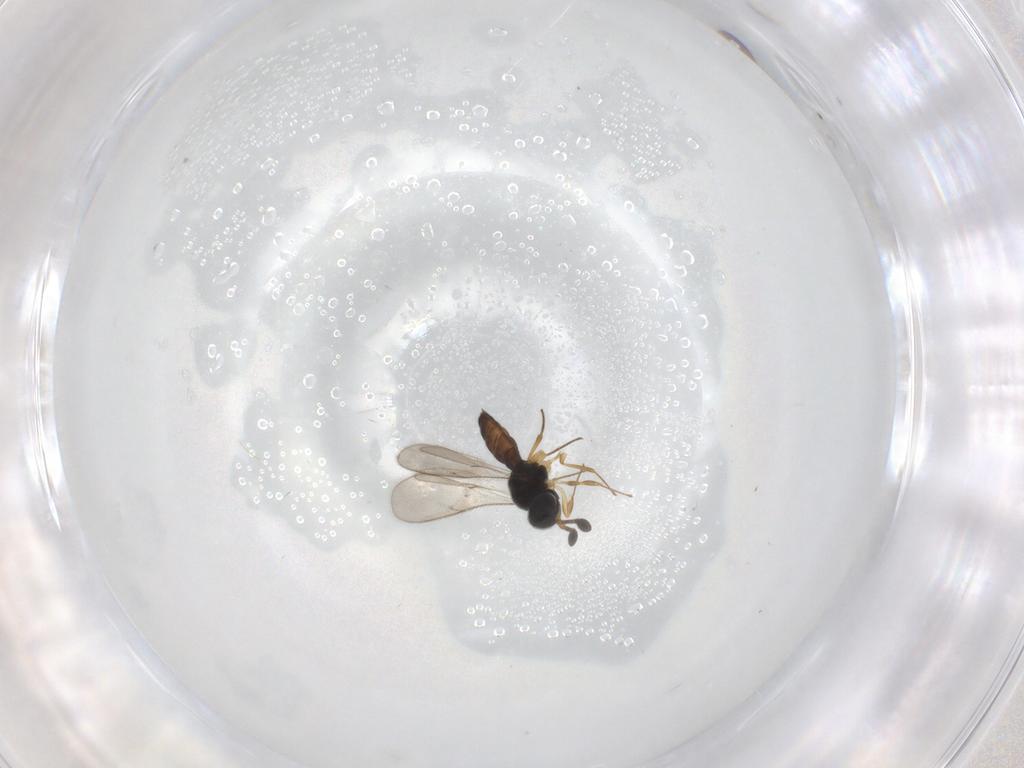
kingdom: Animalia
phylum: Arthropoda
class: Insecta
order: Hymenoptera
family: Scelionidae
